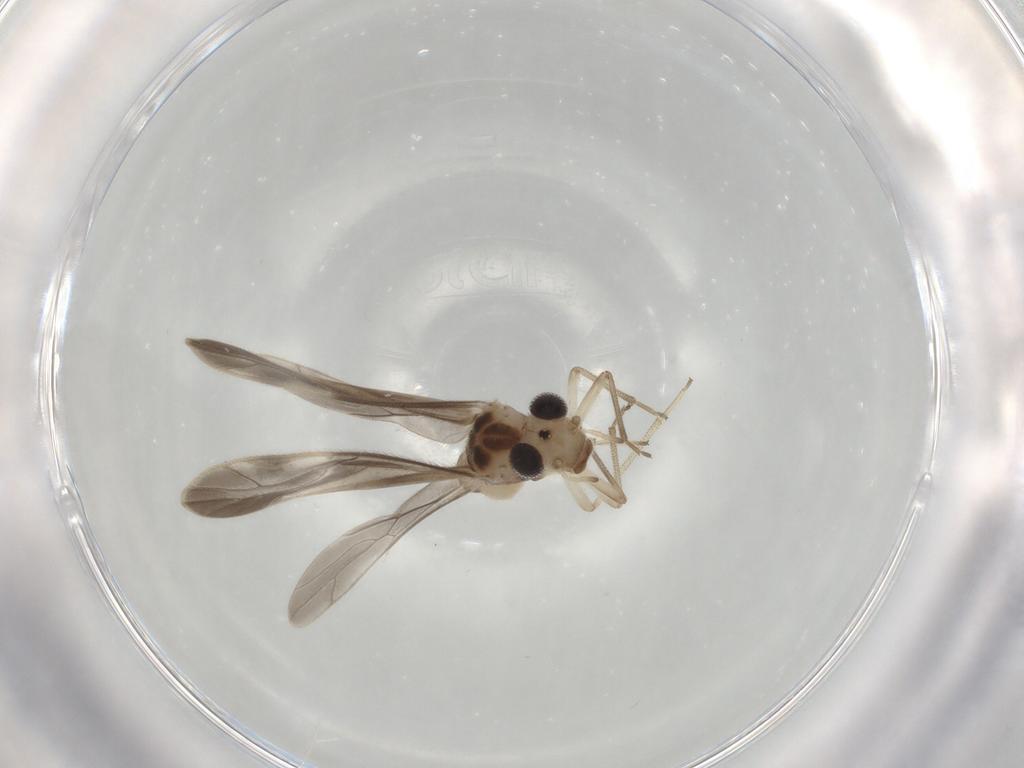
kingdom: Animalia
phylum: Arthropoda
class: Insecta
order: Psocodea
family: Caeciliusidae
